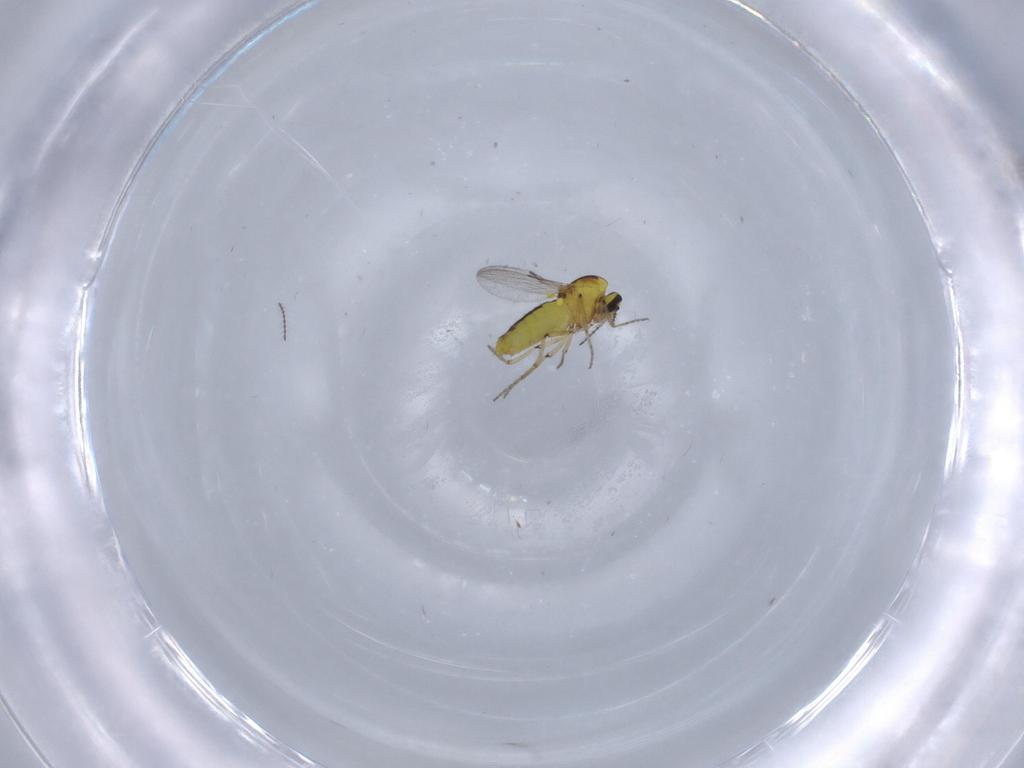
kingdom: Animalia
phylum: Arthropoda
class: Insecta
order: Diptera
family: Ceratopogonidae
